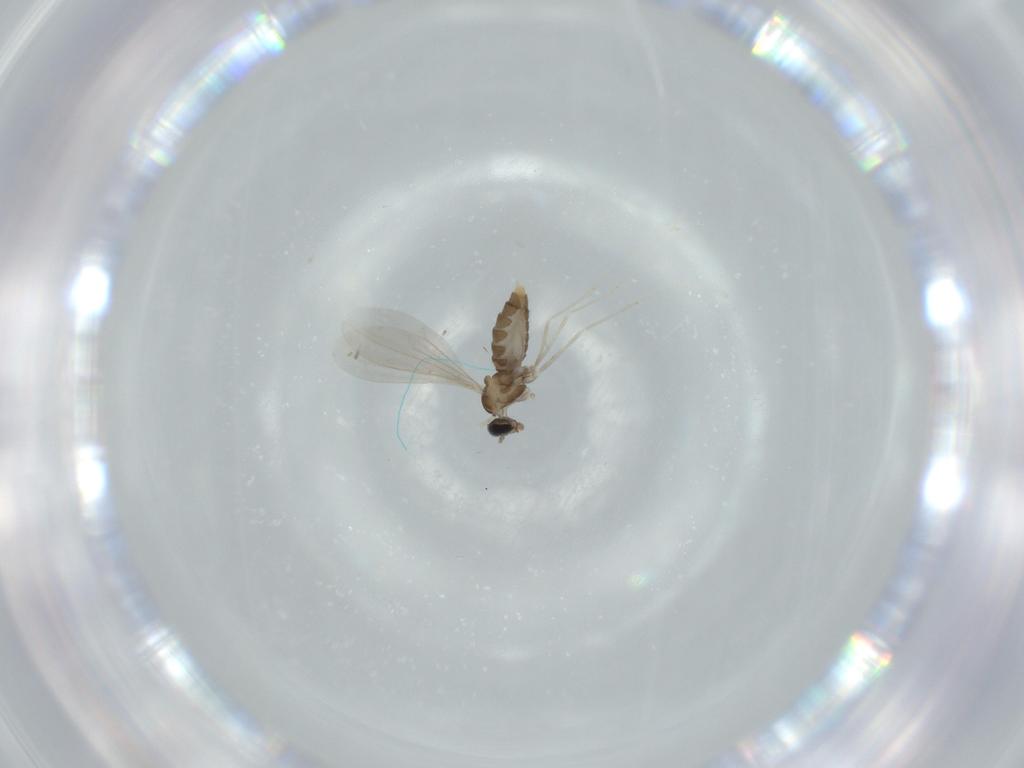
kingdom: Animalia
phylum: Arthropoda
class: Insecta
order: Diptera
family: Cecidomyiidae
